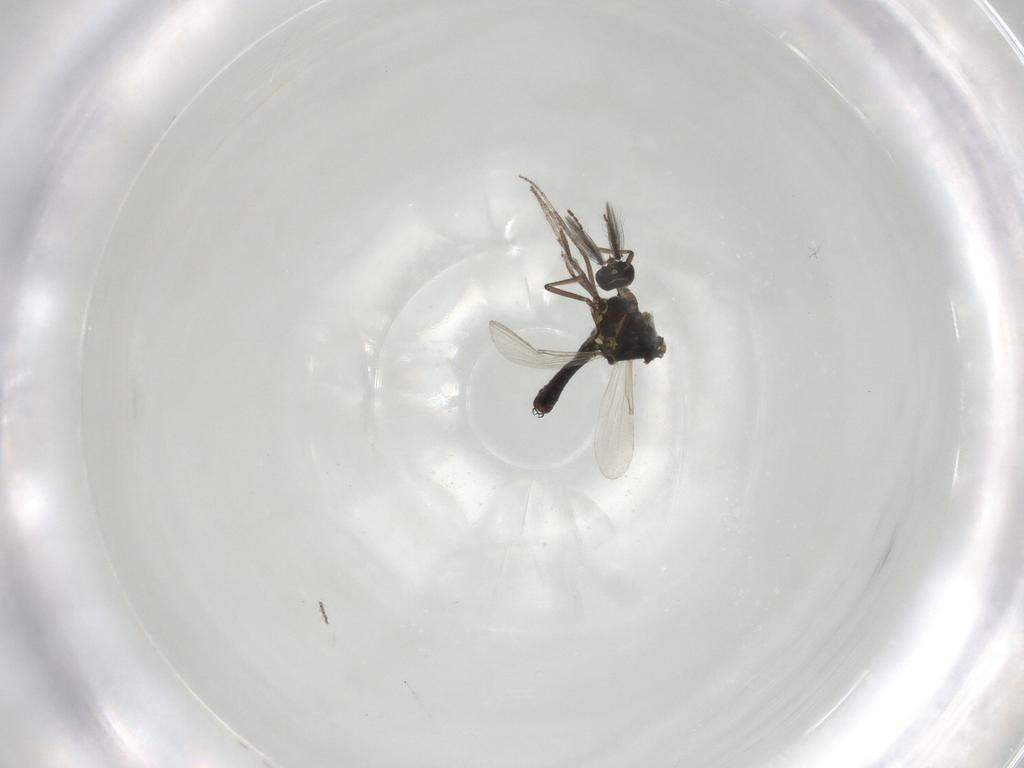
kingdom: Animalia
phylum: Arthropoda
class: Insecta
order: Diptera
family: Ceratopogonidae
